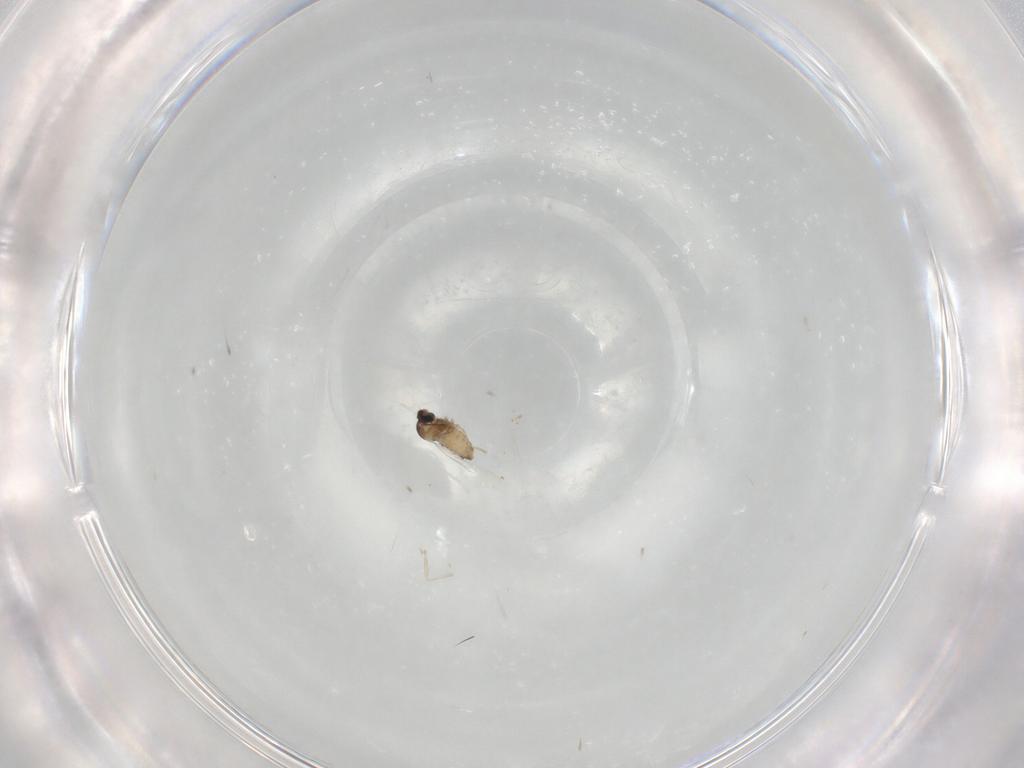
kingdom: Animalia
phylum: Arthropoda
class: Insecta
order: Diptera
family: Cecidomyiidae
